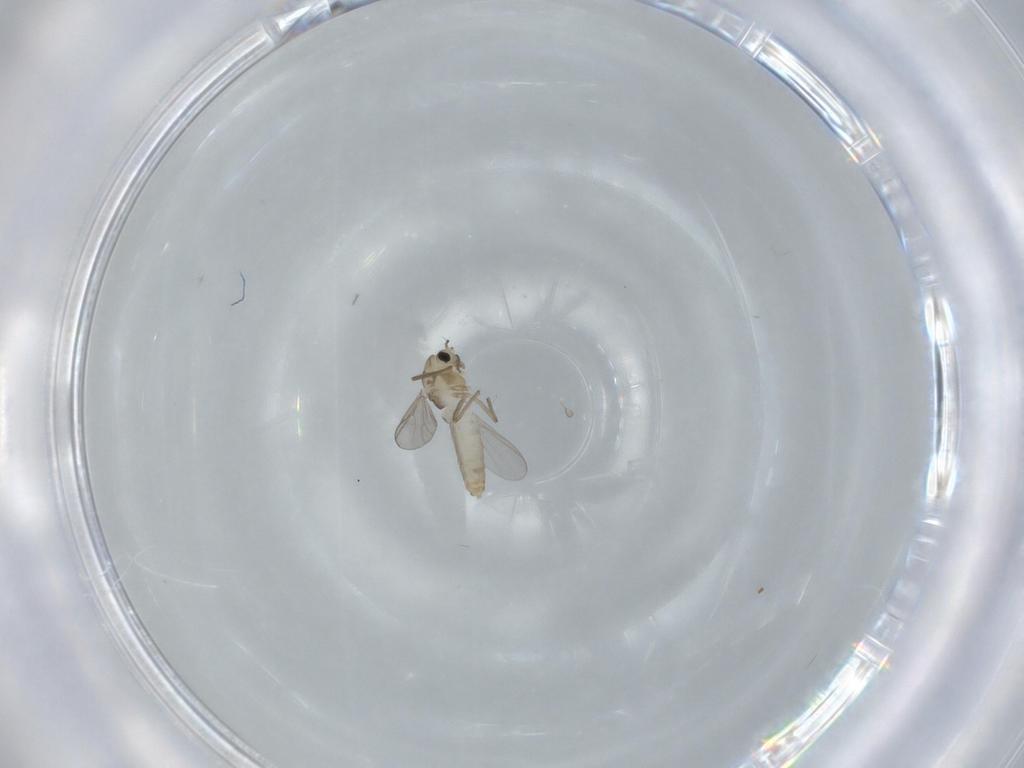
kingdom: Animalia
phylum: Arthropoda
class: Insecta
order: Diptera
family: Chironomidae
